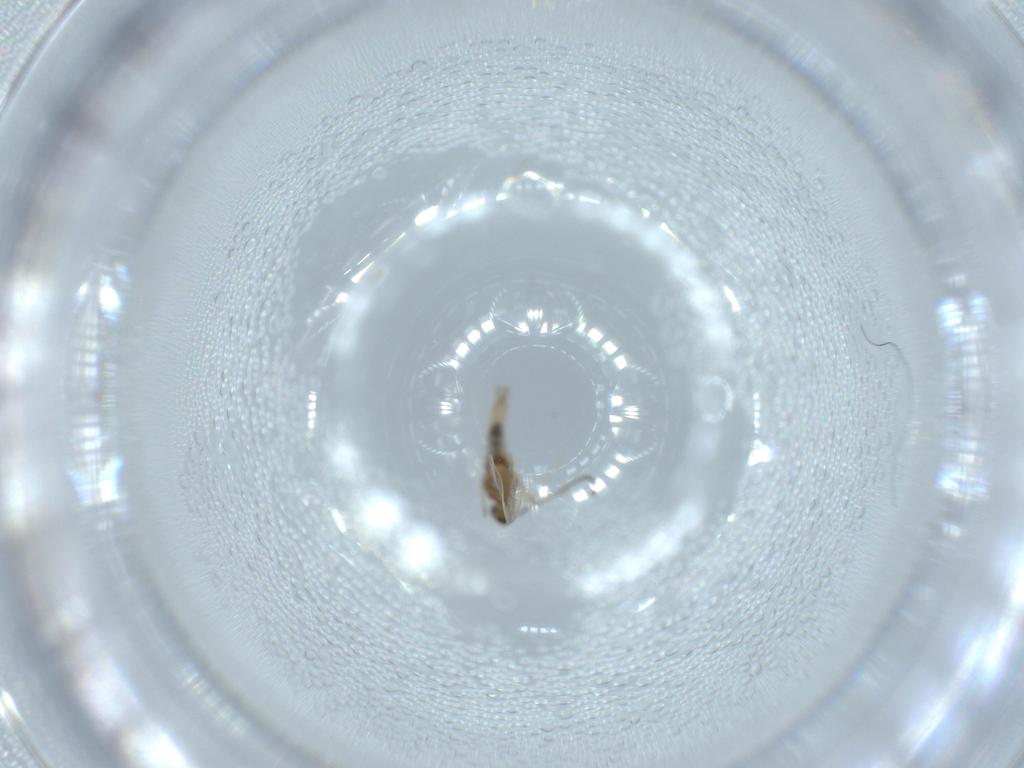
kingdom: Animalia
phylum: Arthropoda
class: Insecta
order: Diptera
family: Cecidomyiidae
